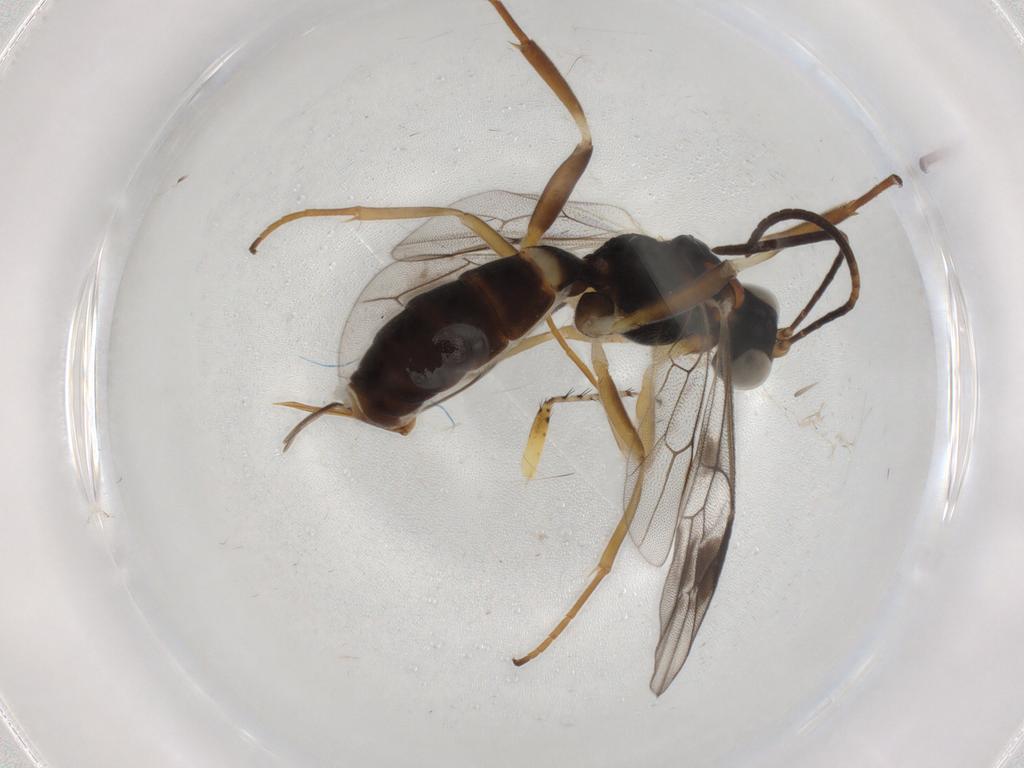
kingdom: Animalia
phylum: Arthropoda
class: Insecta
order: Hymenoptera
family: Ichneumonidae
